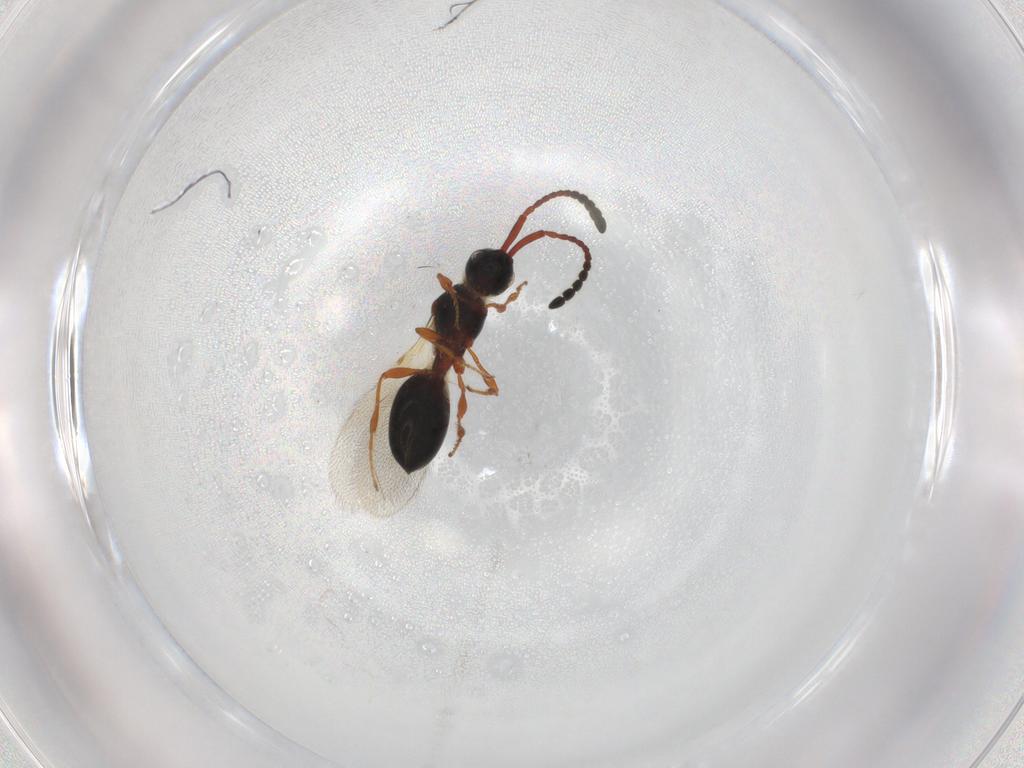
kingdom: Animalia
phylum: Arthropoda
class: Insecta
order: Hymenoptera
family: Diapriidae
